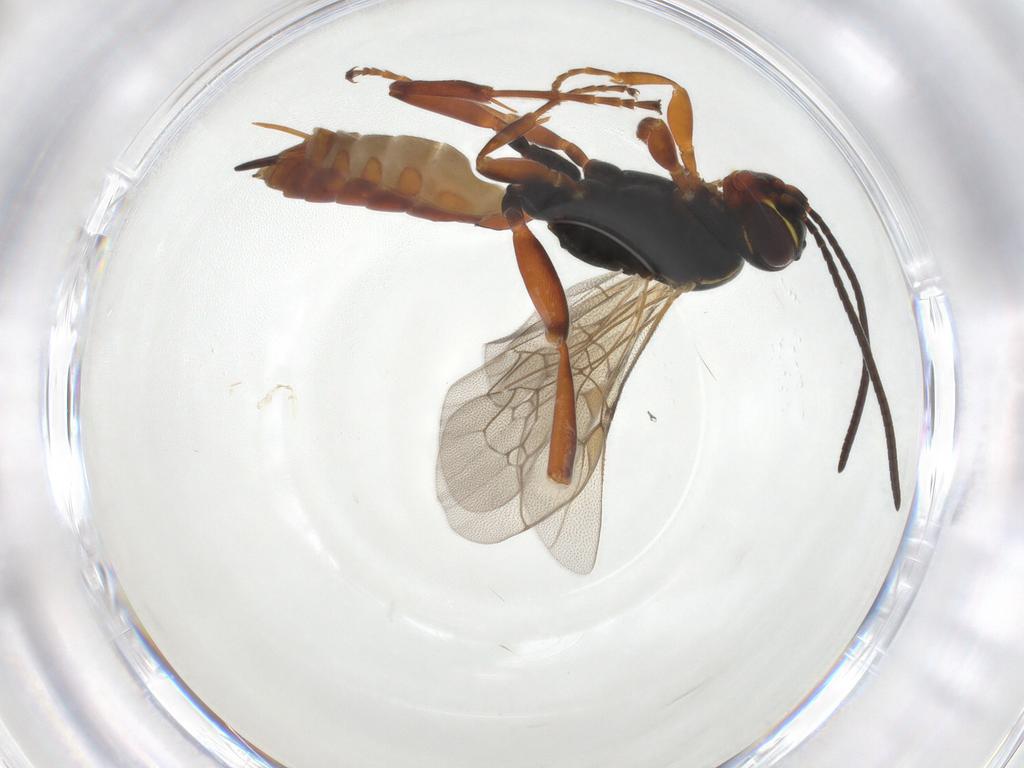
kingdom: Animalia
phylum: Arthropoda
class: Insecta
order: Hymenoptera
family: Ichneumonidae
